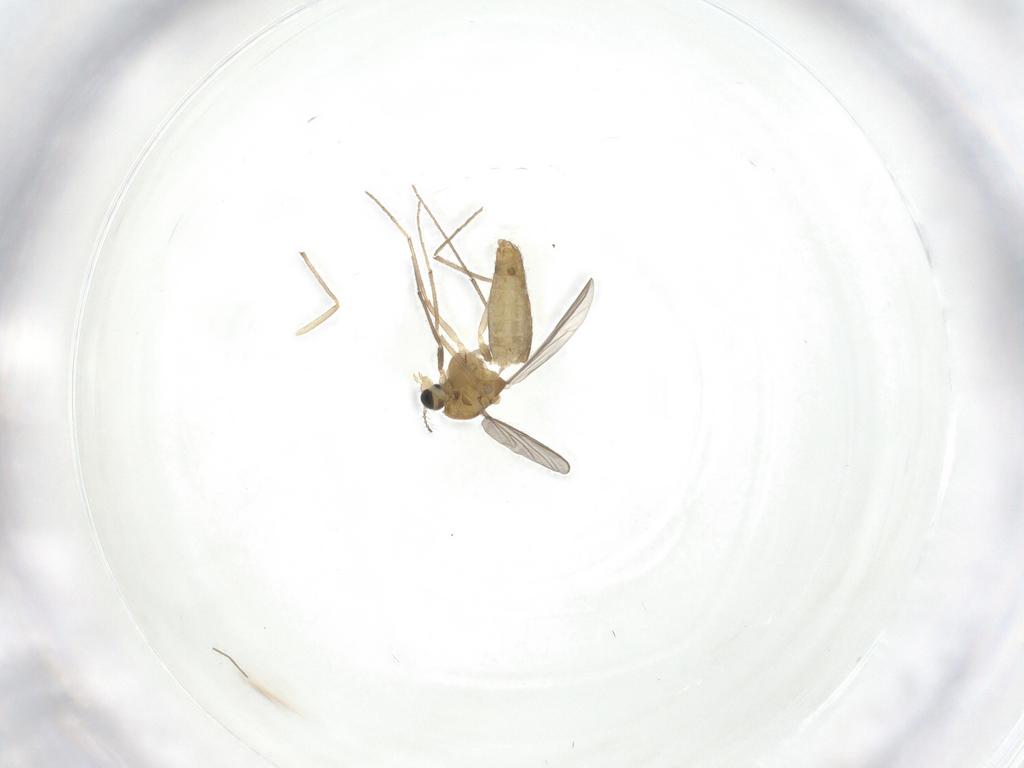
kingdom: Animalia
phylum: Arthropoda
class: Insecta
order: Diptera
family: Chironomidae
